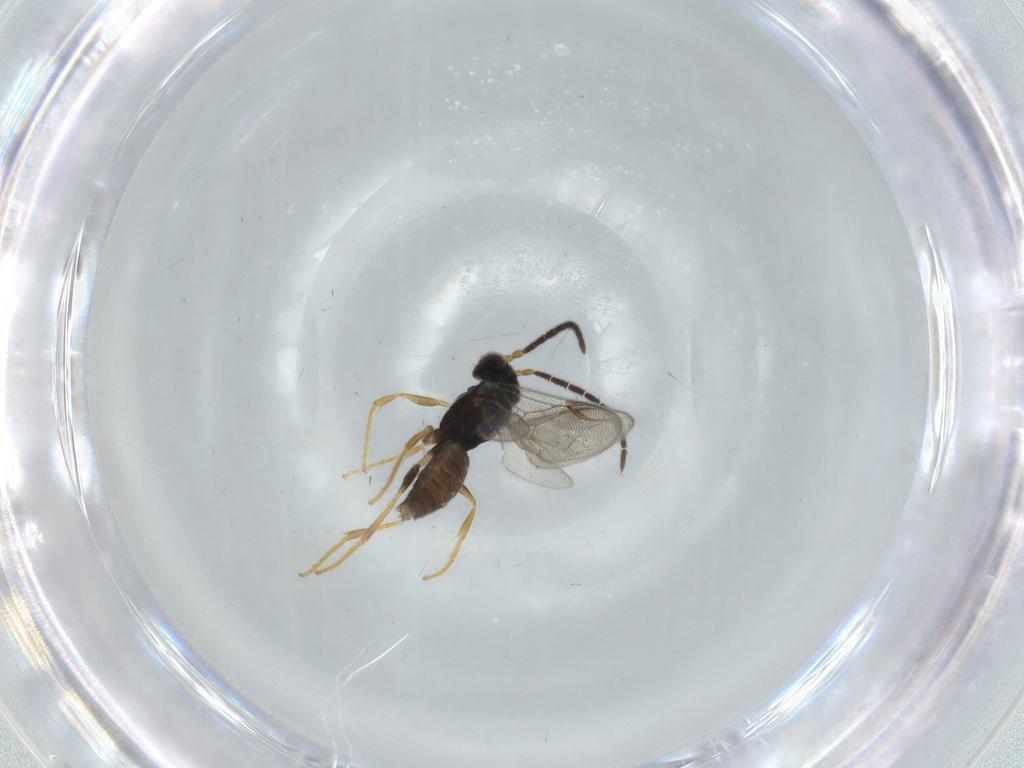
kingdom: Animalia
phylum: Arthropoda
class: Insecta
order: Hymenoptera
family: Dryinidae
